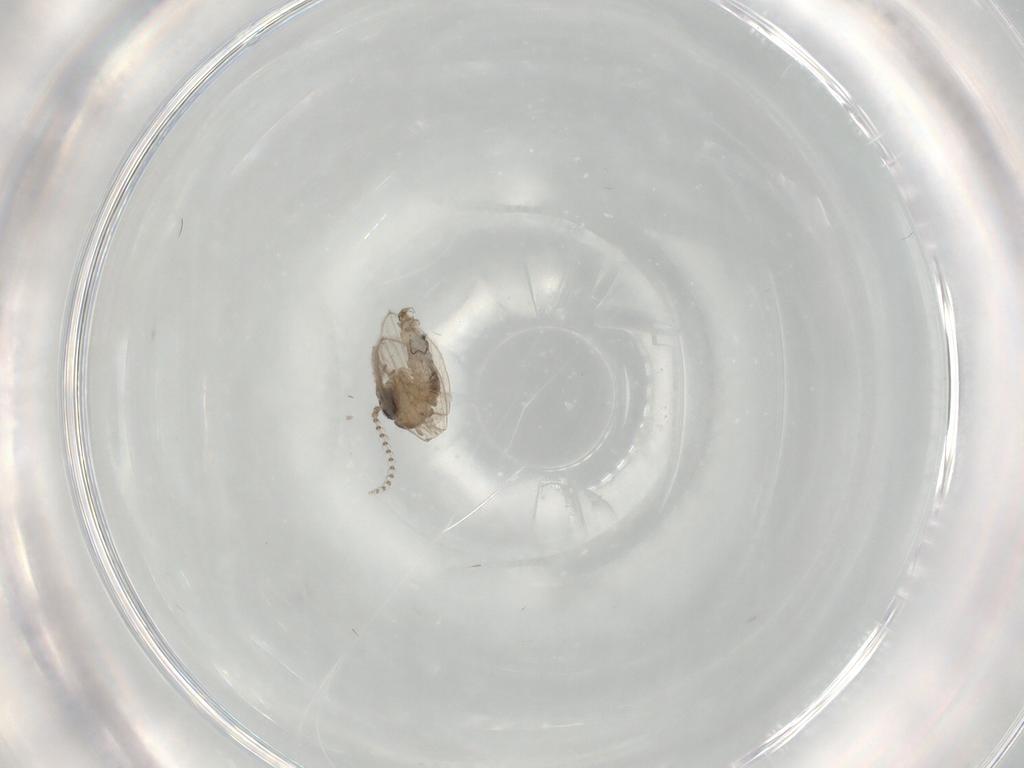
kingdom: Animalia
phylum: Arthropoda
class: Insecta
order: Diptera
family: Psychodidae
